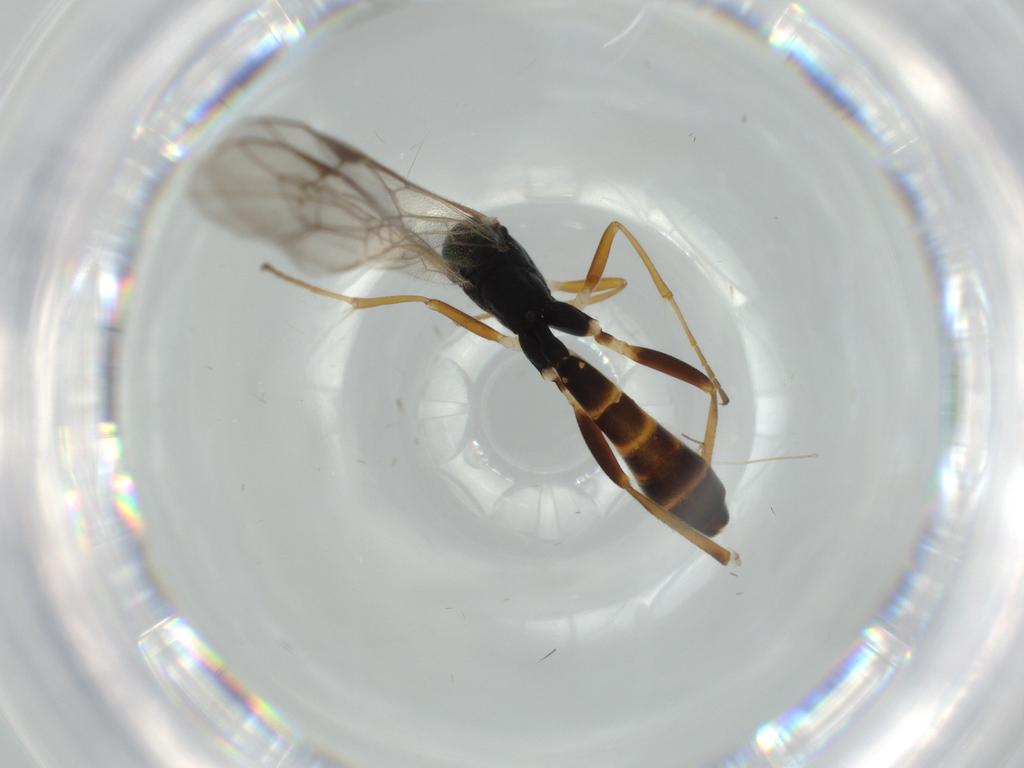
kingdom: Animalia
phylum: Arthropoda
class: Insecta
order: Hymenoptera
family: Ichneumonidae
